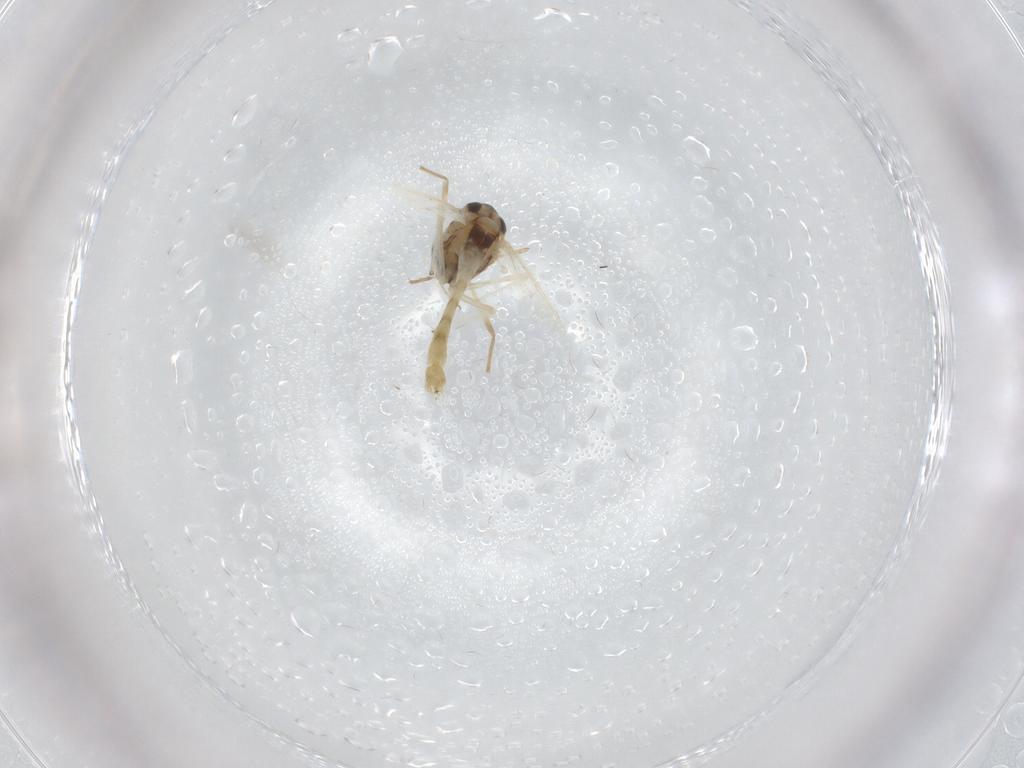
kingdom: Animalia
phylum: Arthropoda
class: Insecta
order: Diptera
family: Chironomidae
